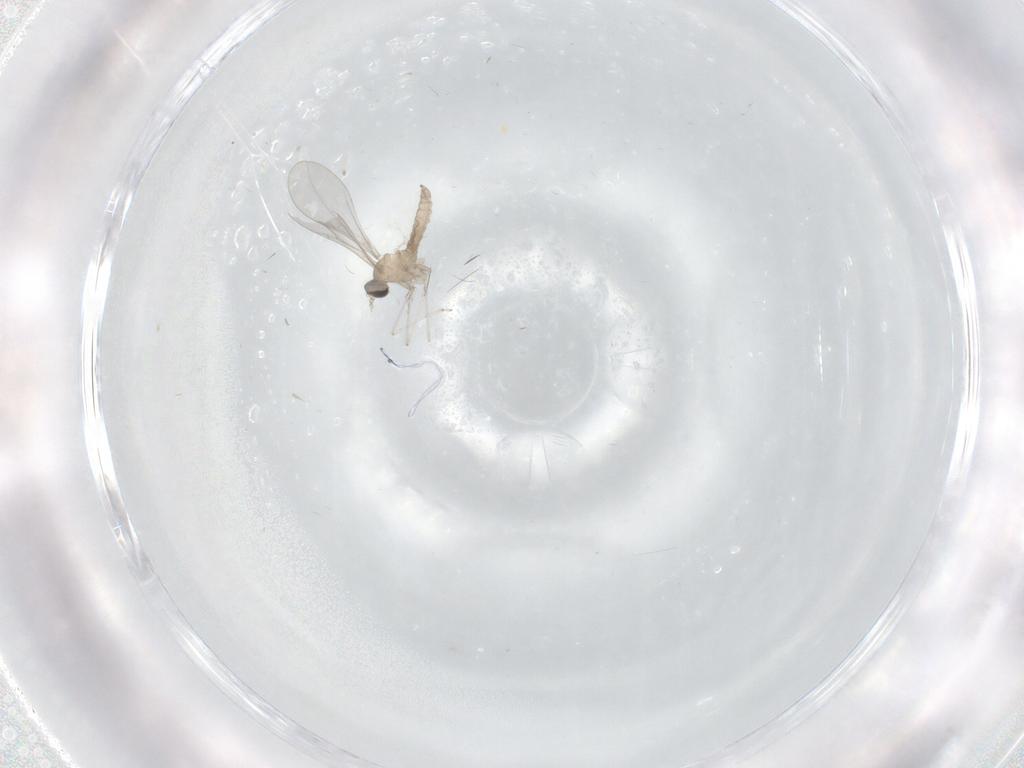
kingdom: Animalia
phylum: Arthropoda
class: Insecta
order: Diptera
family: Cecidomyiidae
